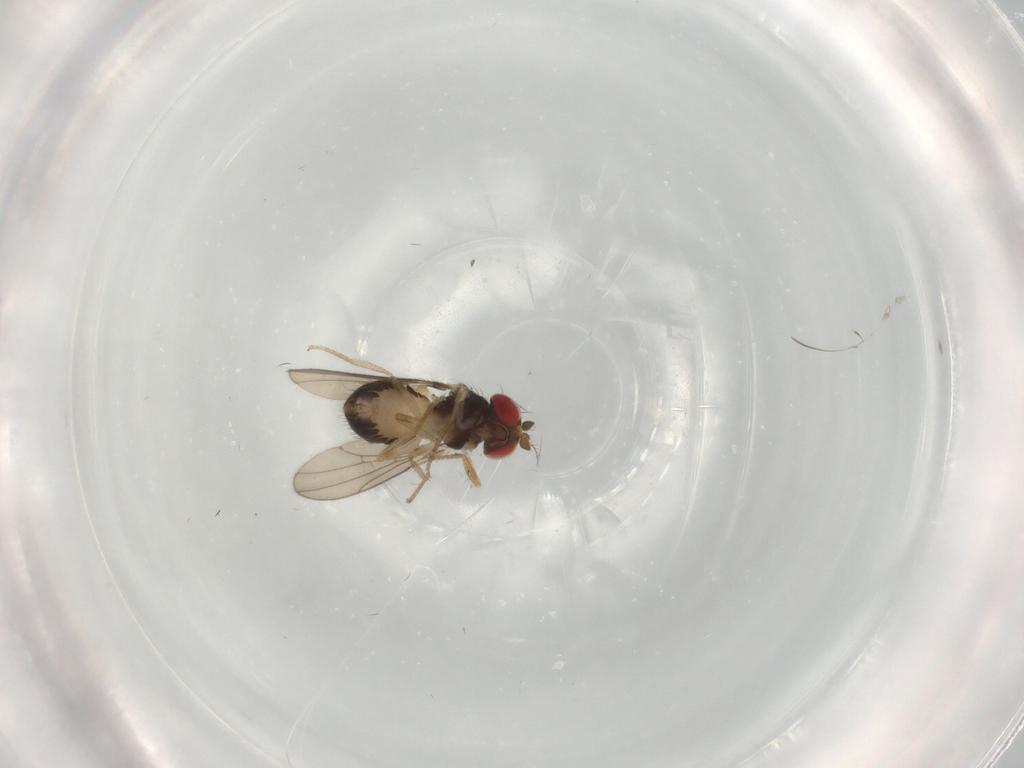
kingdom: Animalia
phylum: Arthropoda
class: Insecta
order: Diptera
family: Drosophilidae
